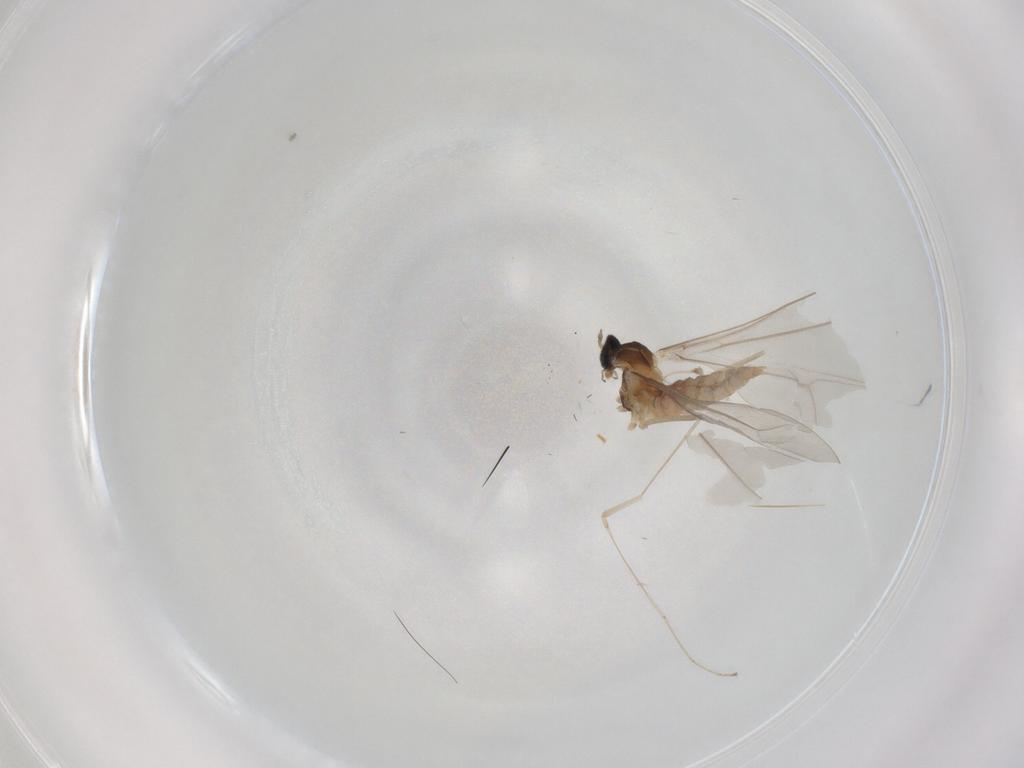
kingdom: Animalia
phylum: Arthropoda
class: Insecta
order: Diptera
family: Cecidomyiidae
